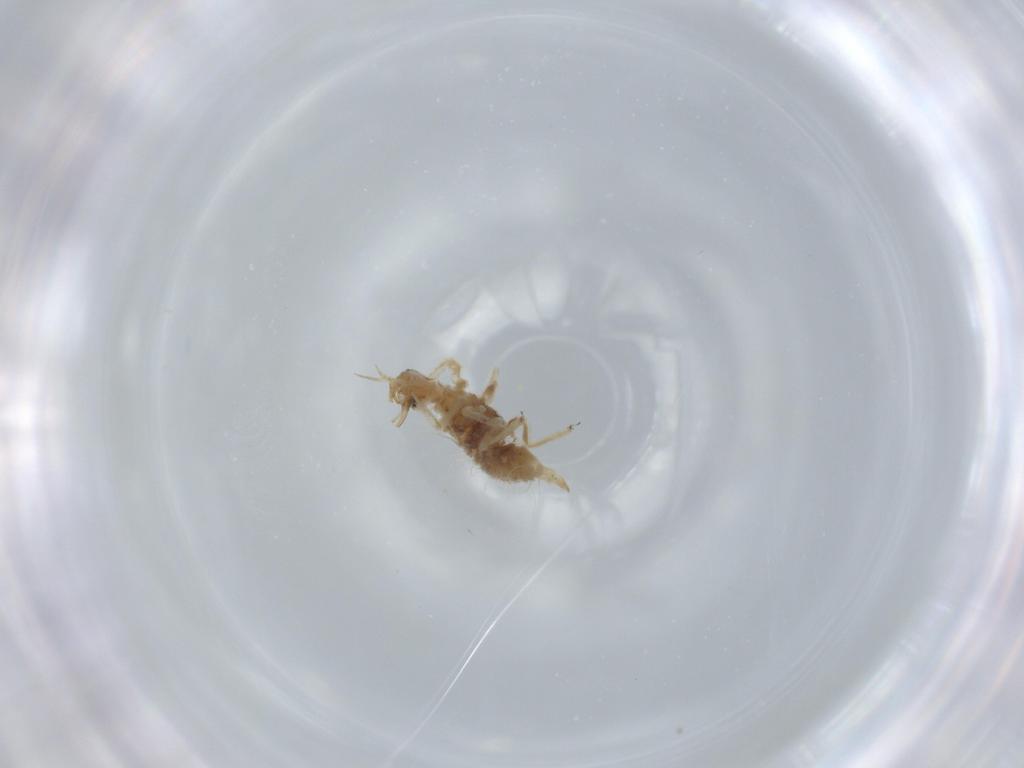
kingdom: Animalia
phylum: Arthropoda
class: Insecta
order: Neuroptera
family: Chrysopidae
